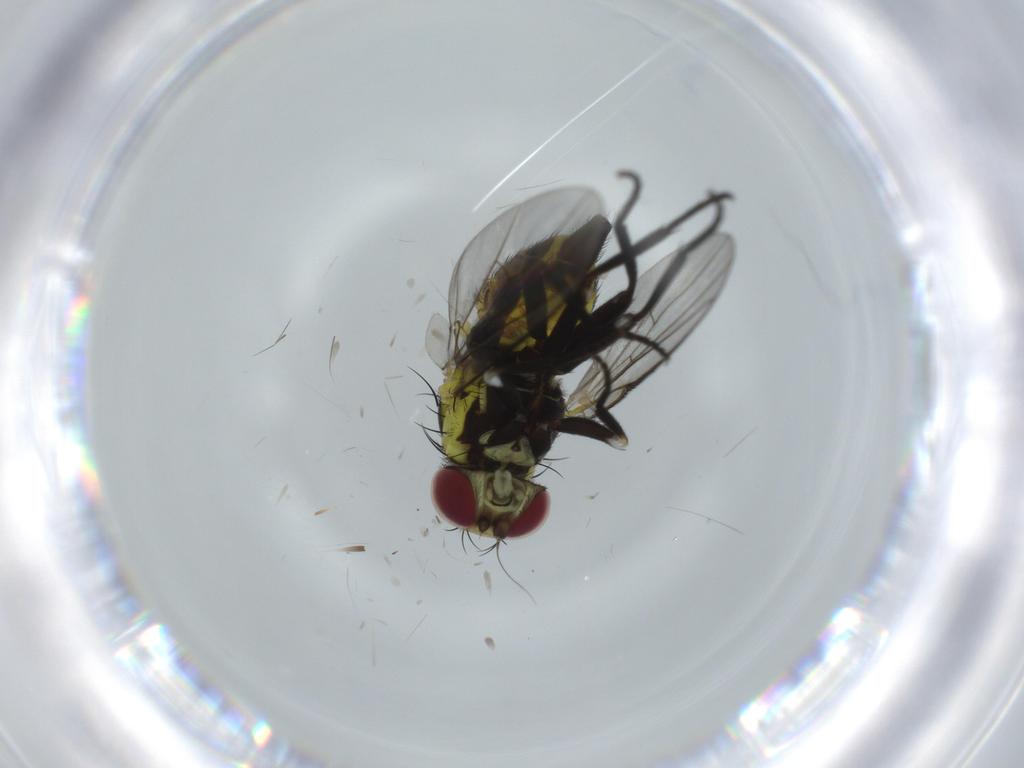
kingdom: Animalia
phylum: Arthropoda
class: Insecta
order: Diptera
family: Cecidomyiidae
